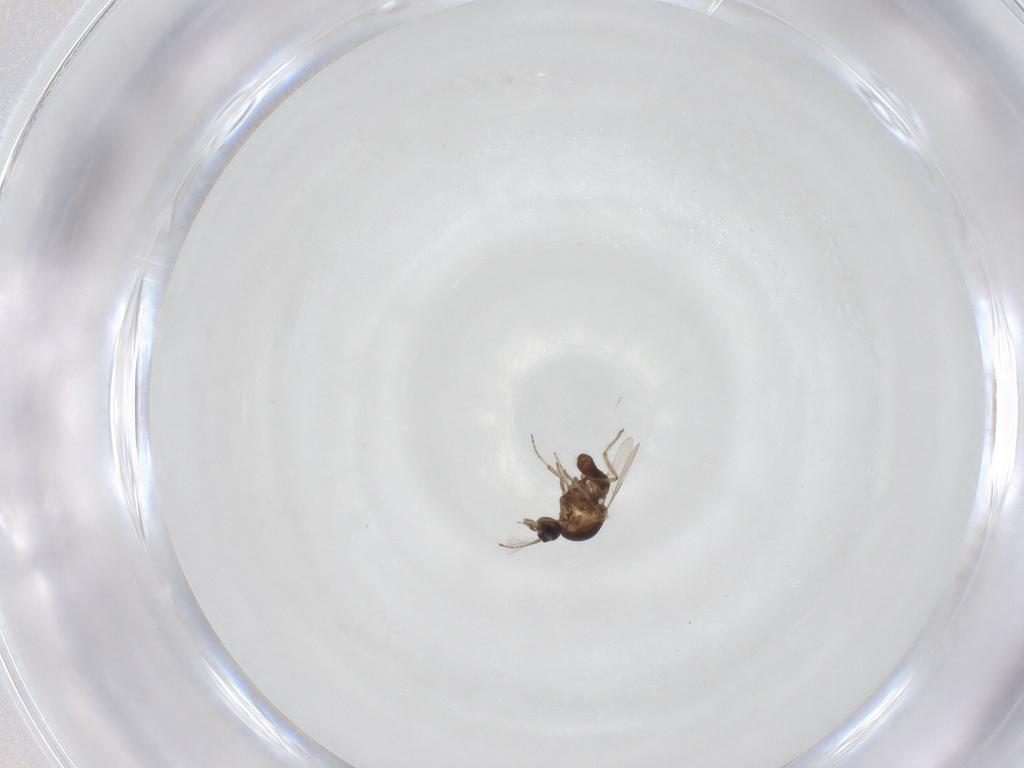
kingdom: Animalia
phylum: Arthropoda
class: Insecta
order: Diptera
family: Ceratopogonidae
